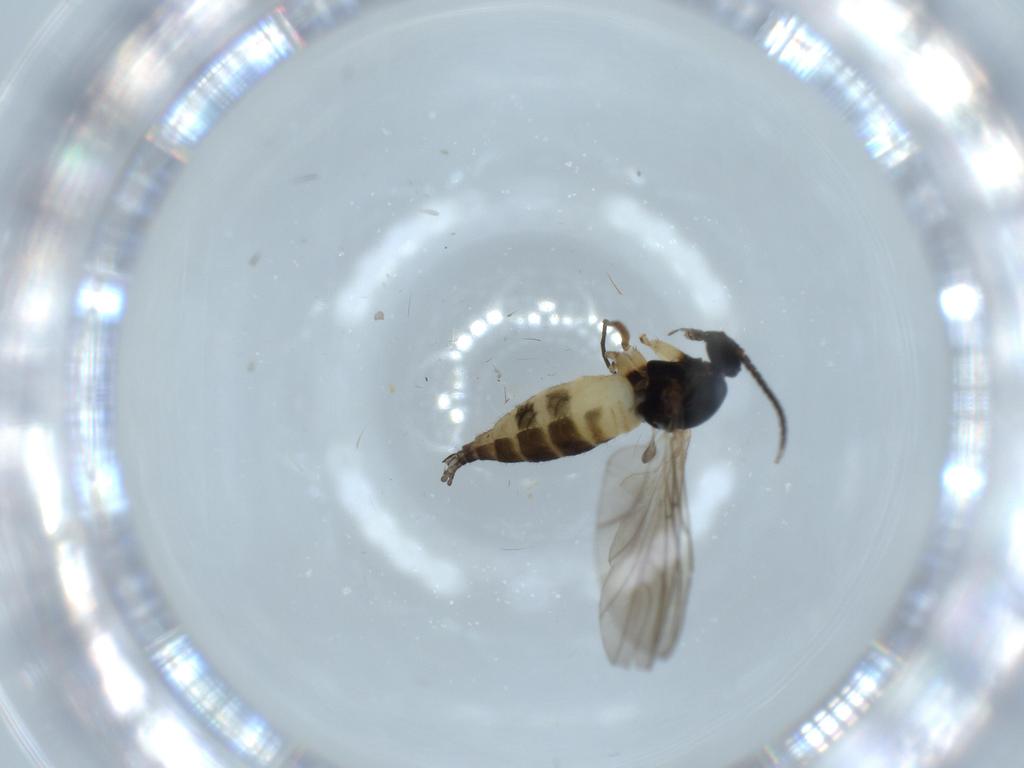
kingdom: Animalia
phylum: Arthropoda
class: Insecta
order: Diptera
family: Sciaridae
